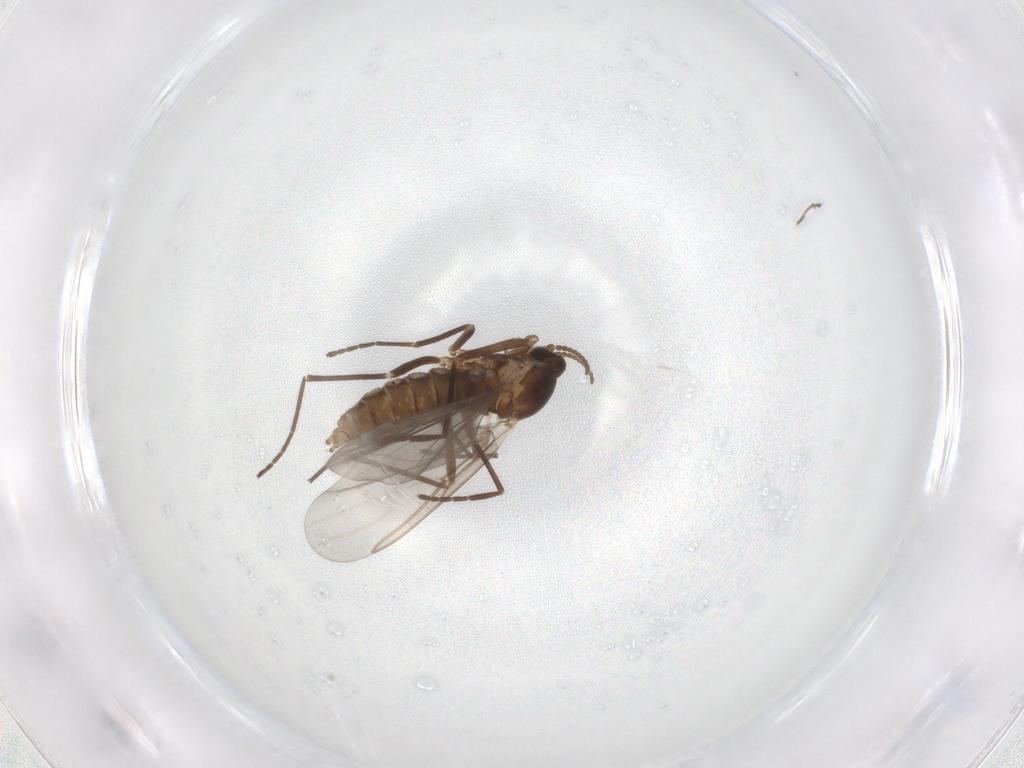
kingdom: Animalia
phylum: Arthropoda
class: Insecta
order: Diptera
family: Cecidomyiidae
